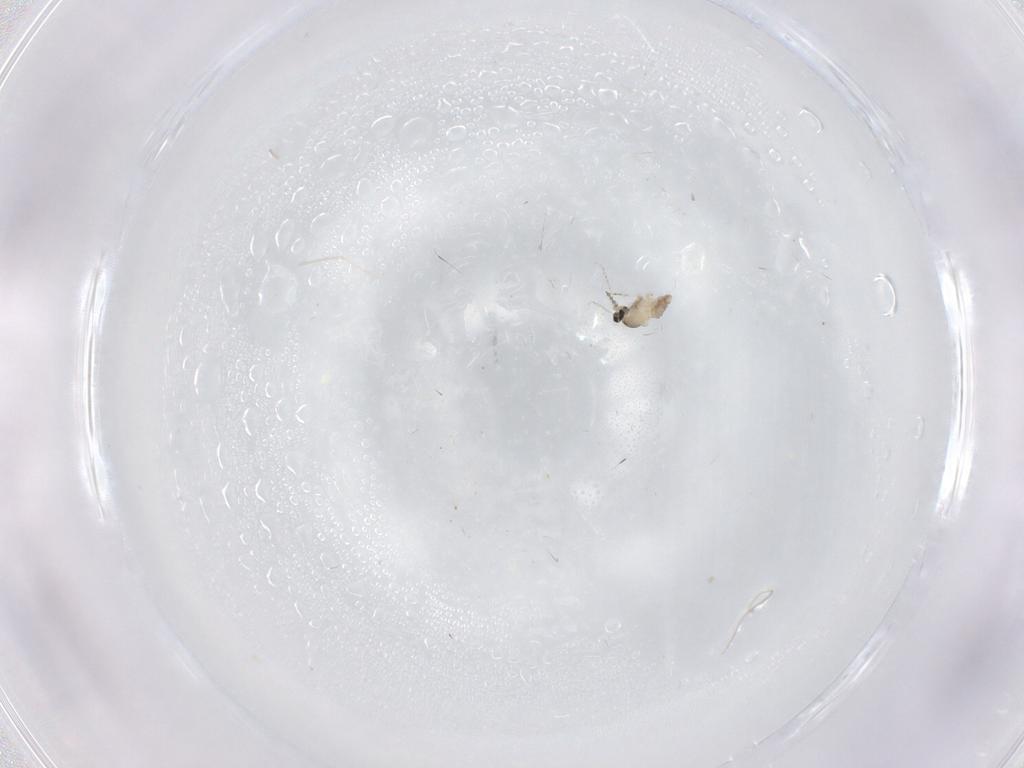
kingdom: Animalia
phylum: Arthropoda
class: Insecta
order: Diptera
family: Cecidomyiidae
